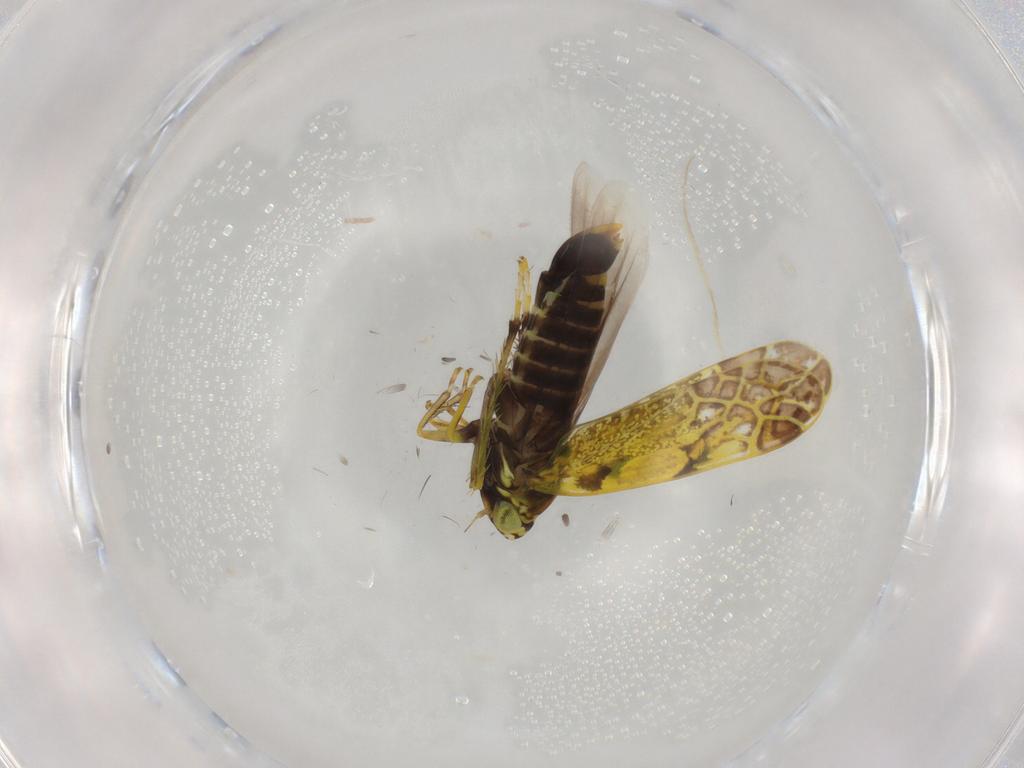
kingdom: Animalia
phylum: Arthropoda
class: Insecta
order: Hemiptera
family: Cicadellidae
